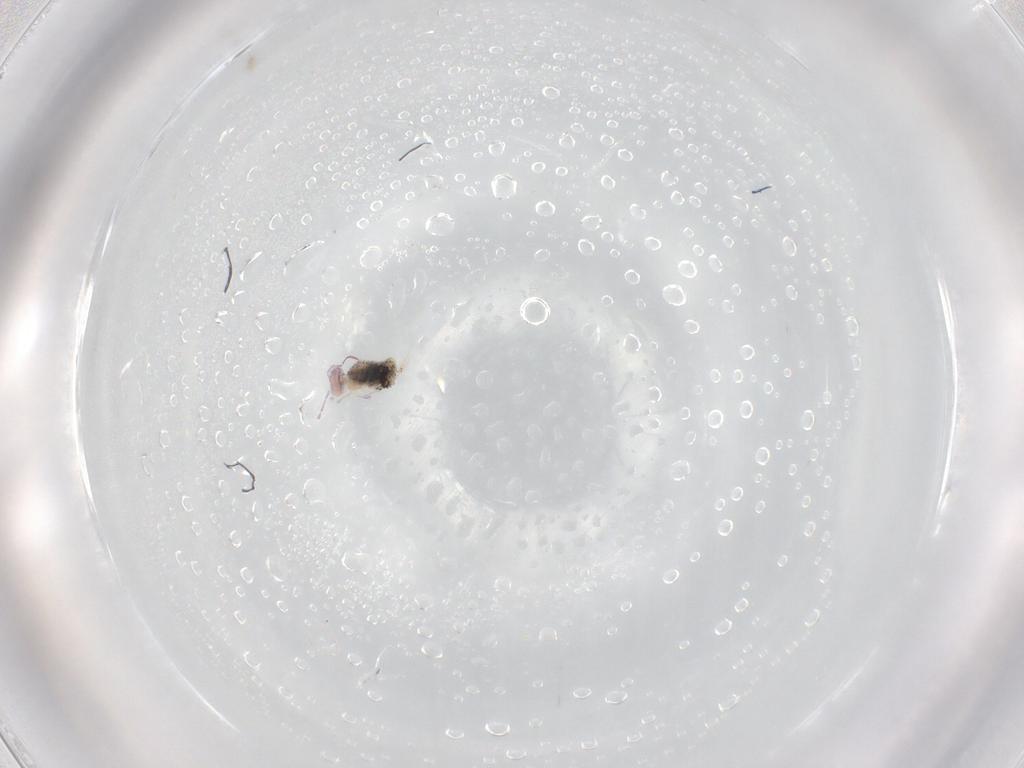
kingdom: Animalia
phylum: Arthropoda
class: Collembola
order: Symphypleona
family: Bourletiellidae
